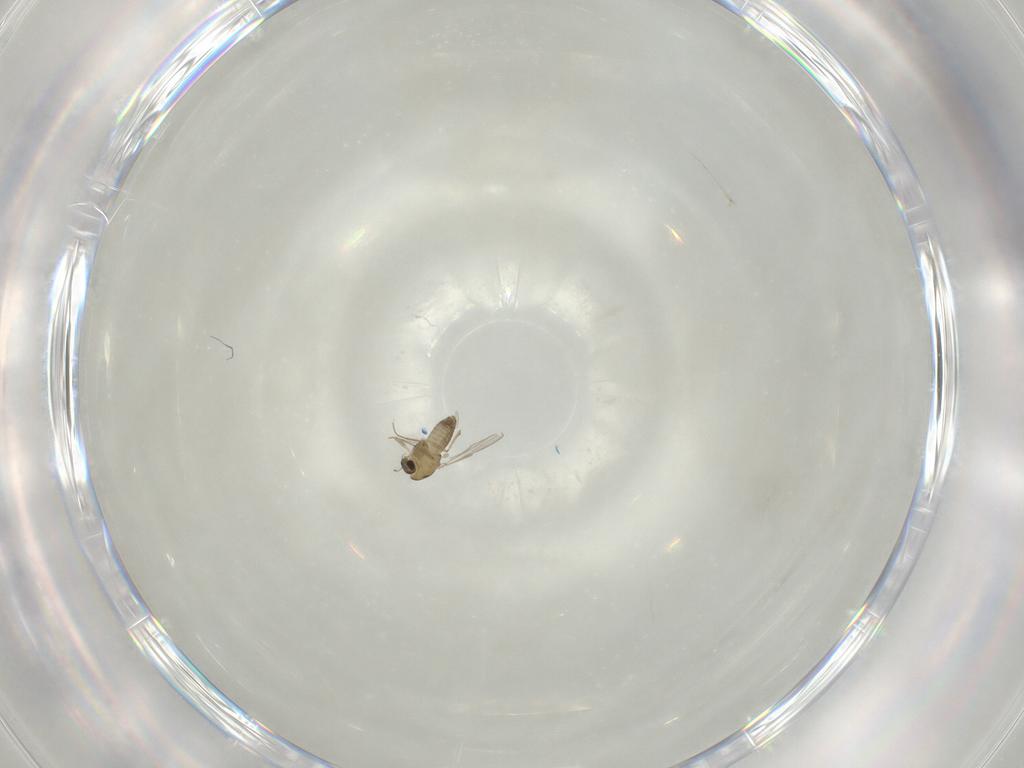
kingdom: Animalia
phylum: Arthropoda
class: Insecta
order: Diptera
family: Chironomidae
